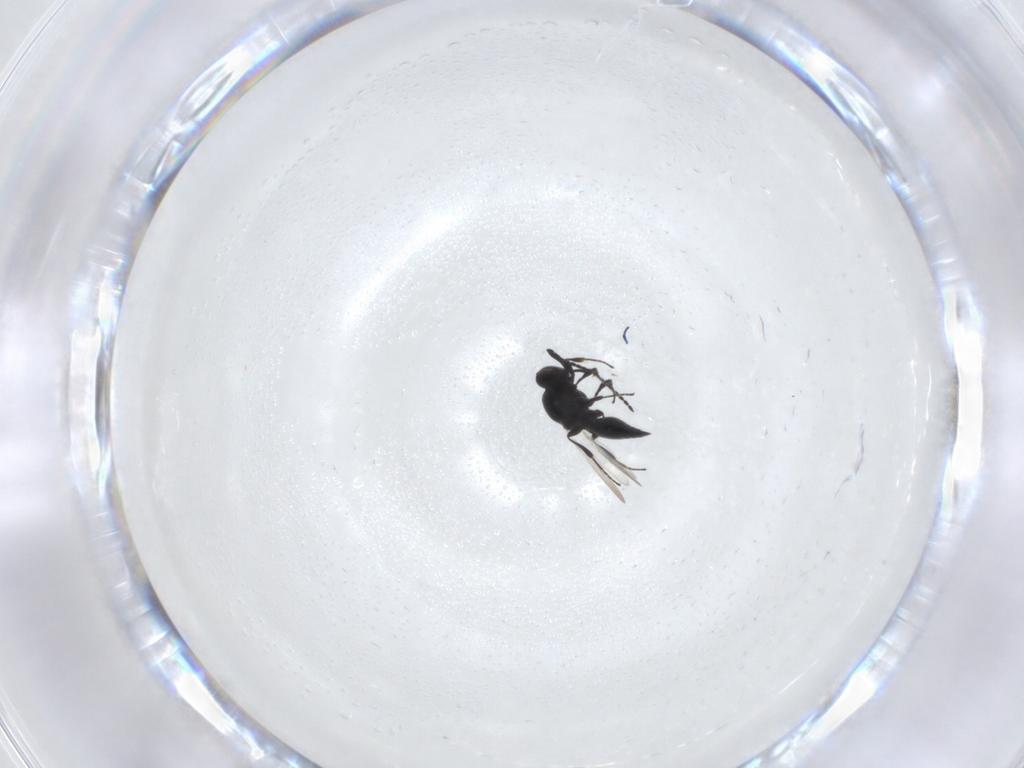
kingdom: Animalia
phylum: Arthropoda
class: Insecta
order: Hymenoptera
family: Platygastridae
